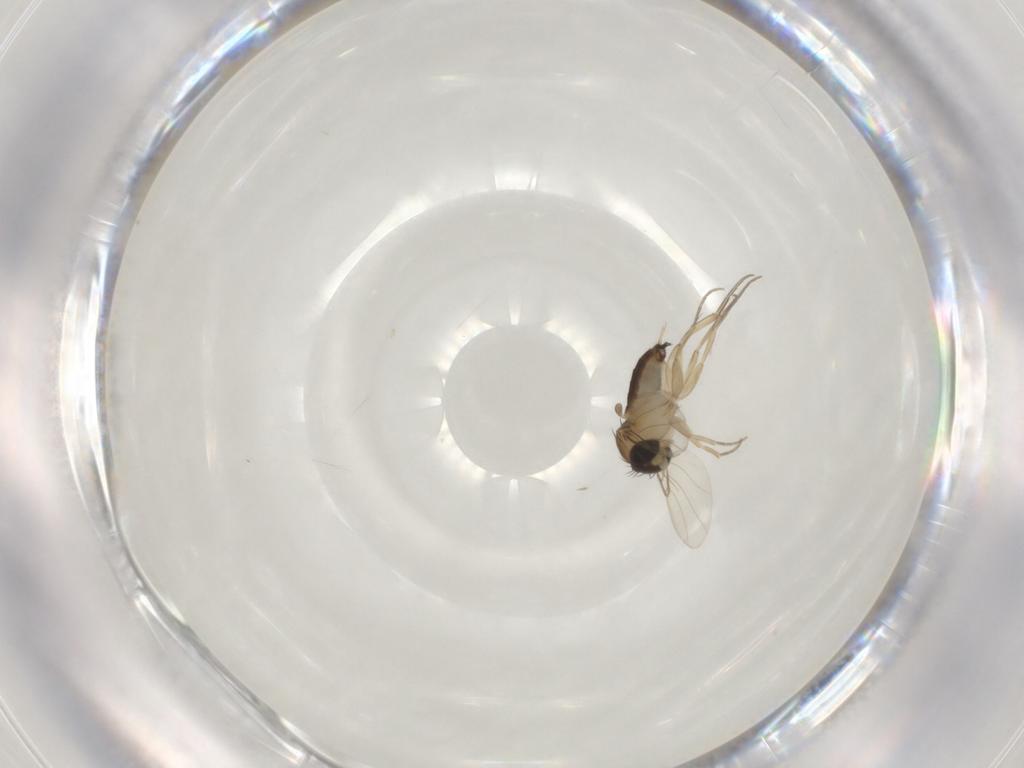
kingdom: Animalia
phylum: Arthropoda
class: Insecta
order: Diptera
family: Phoridae
